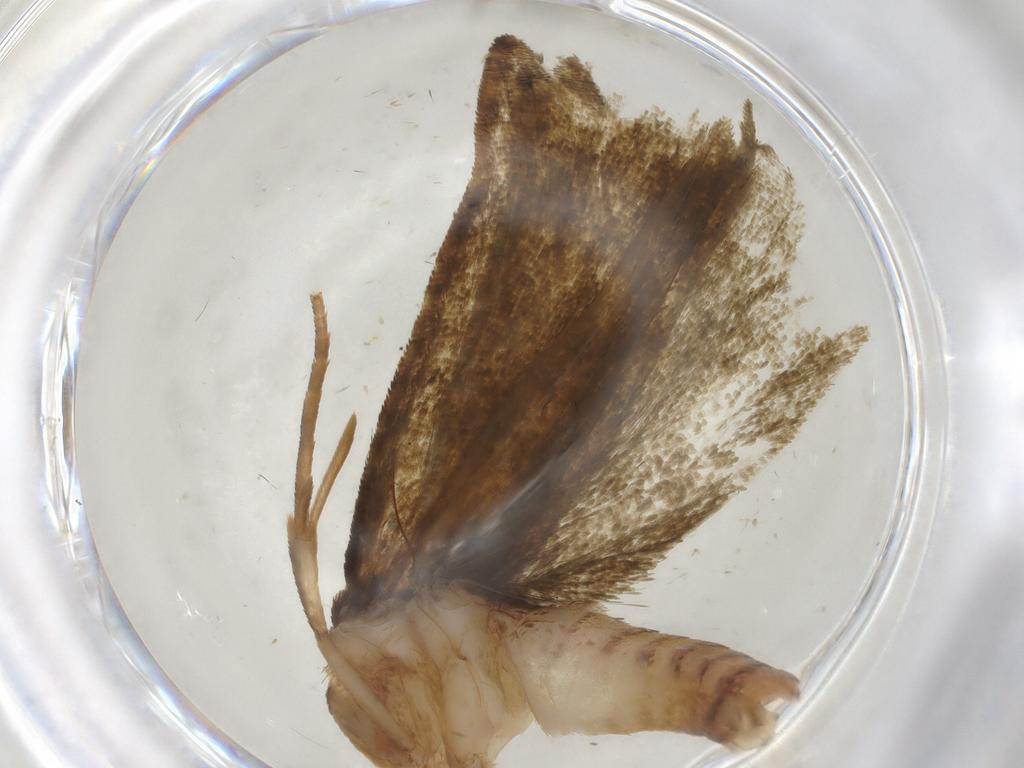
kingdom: Animalia
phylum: Arthropoda
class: Insecta
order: Lepidoptera
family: Geometridae
